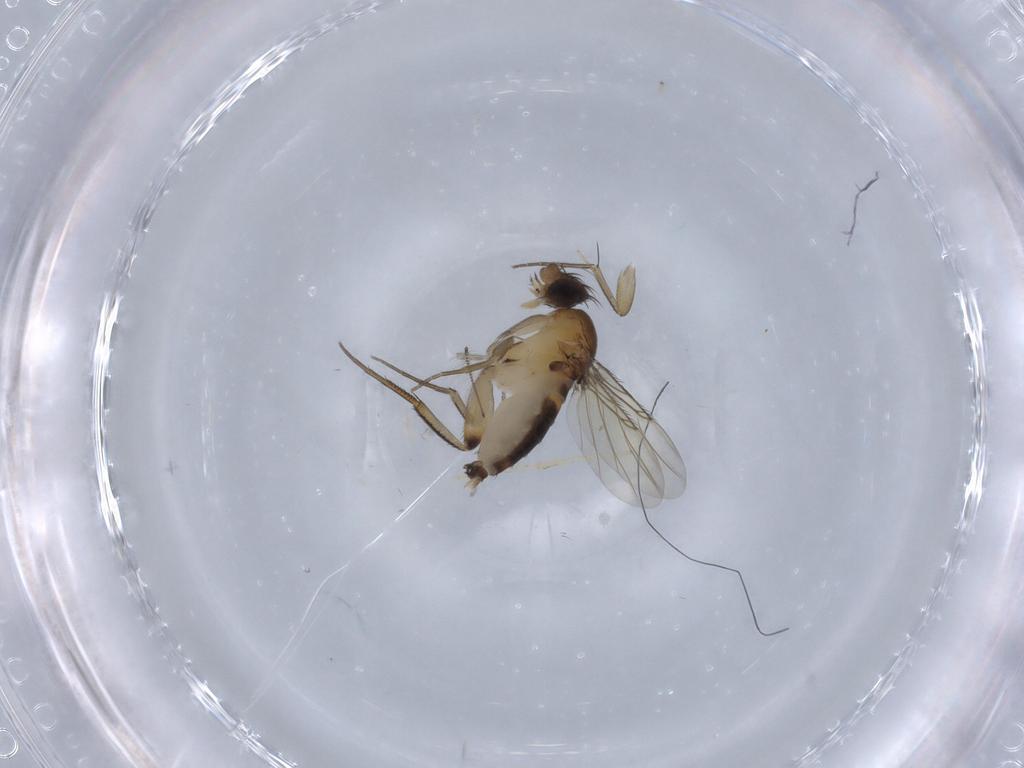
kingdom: Animalia
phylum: Arthropoda
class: Insecta
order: Diptera
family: Phoridae
